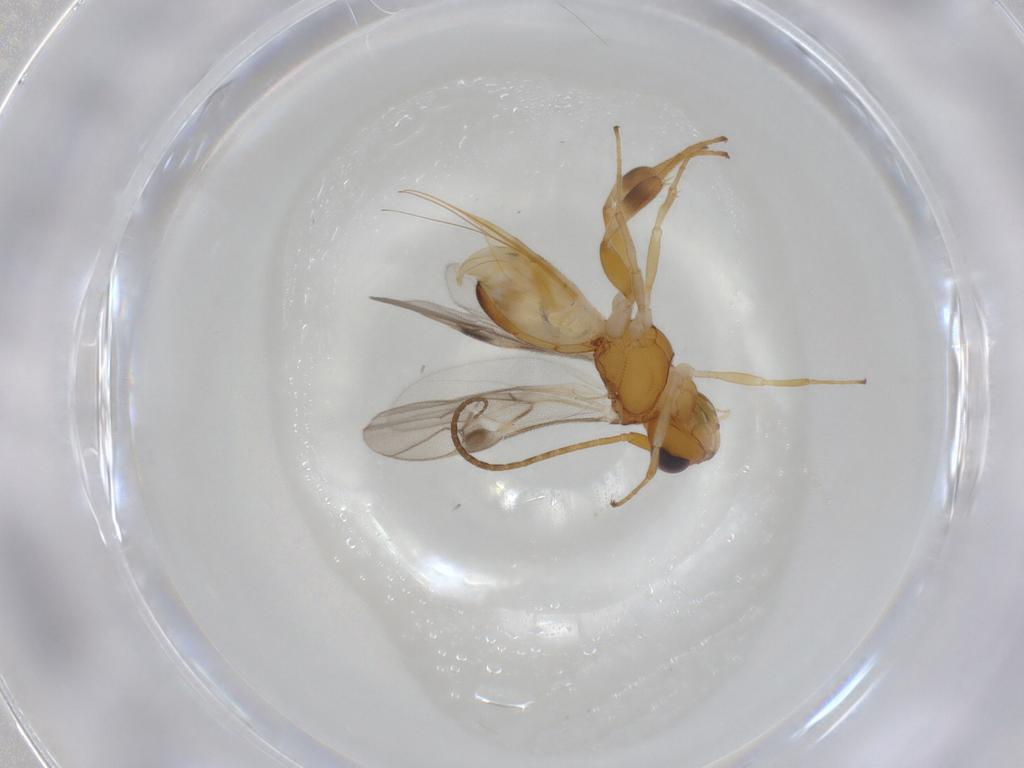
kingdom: Animalia
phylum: Arthropoda
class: Insecta
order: Hymenoptera
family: Braconidae
